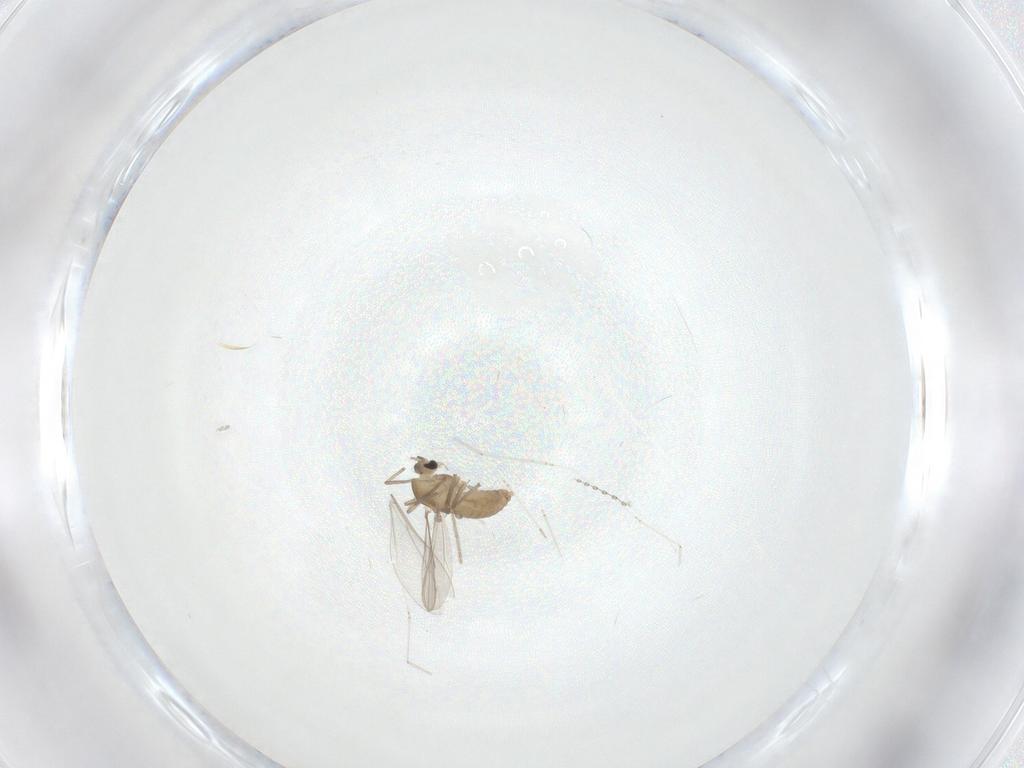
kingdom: Animalia
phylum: Arthropoda
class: Insecta
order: Diptera
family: Cecidomyiidae
